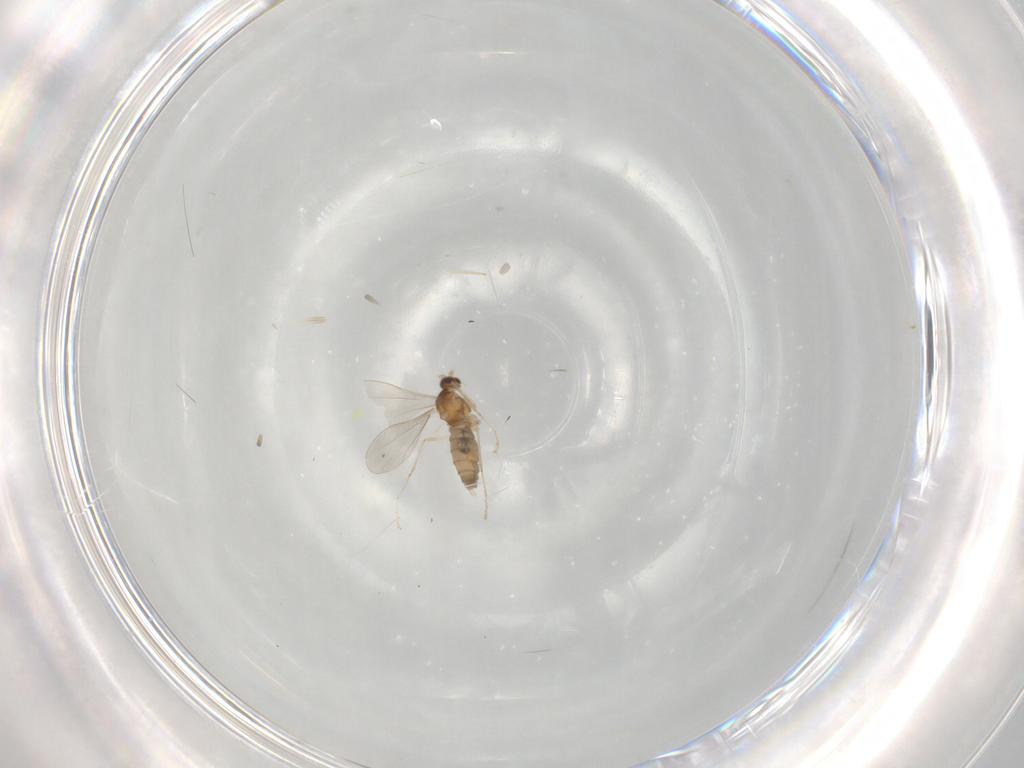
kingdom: Animalia
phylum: Arthropoda
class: Insecta
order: Diptera
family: Cecidomyiidae
